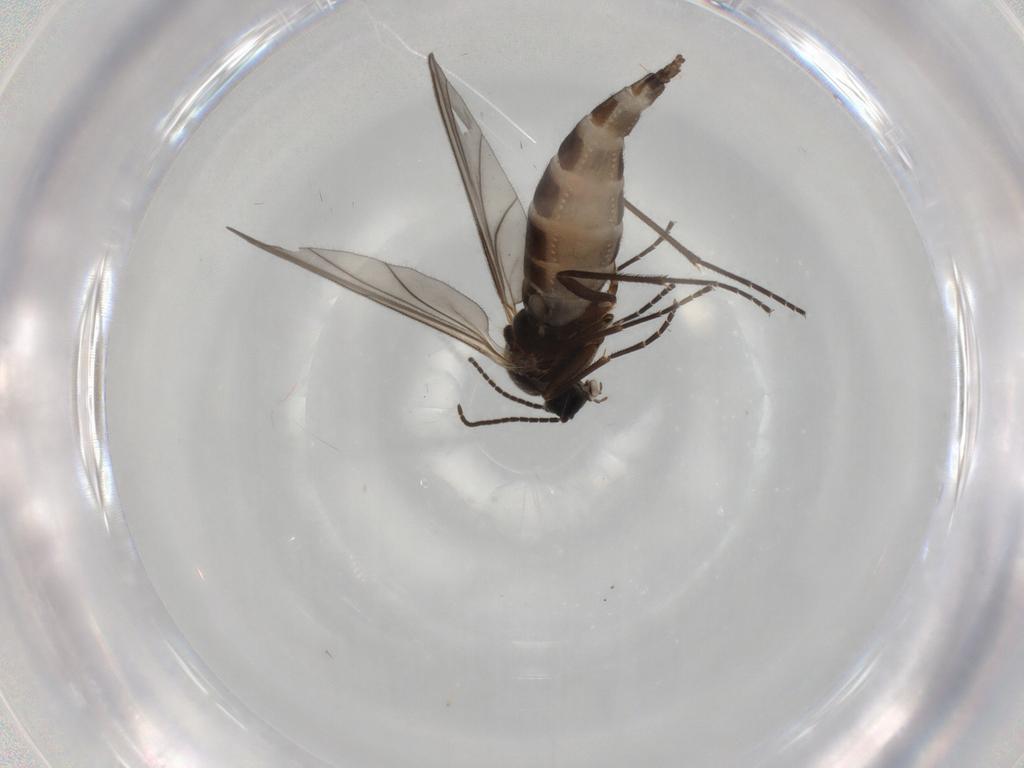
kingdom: Animalia
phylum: Arthropoda
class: Insecta
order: Diptera
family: Sciaridae
